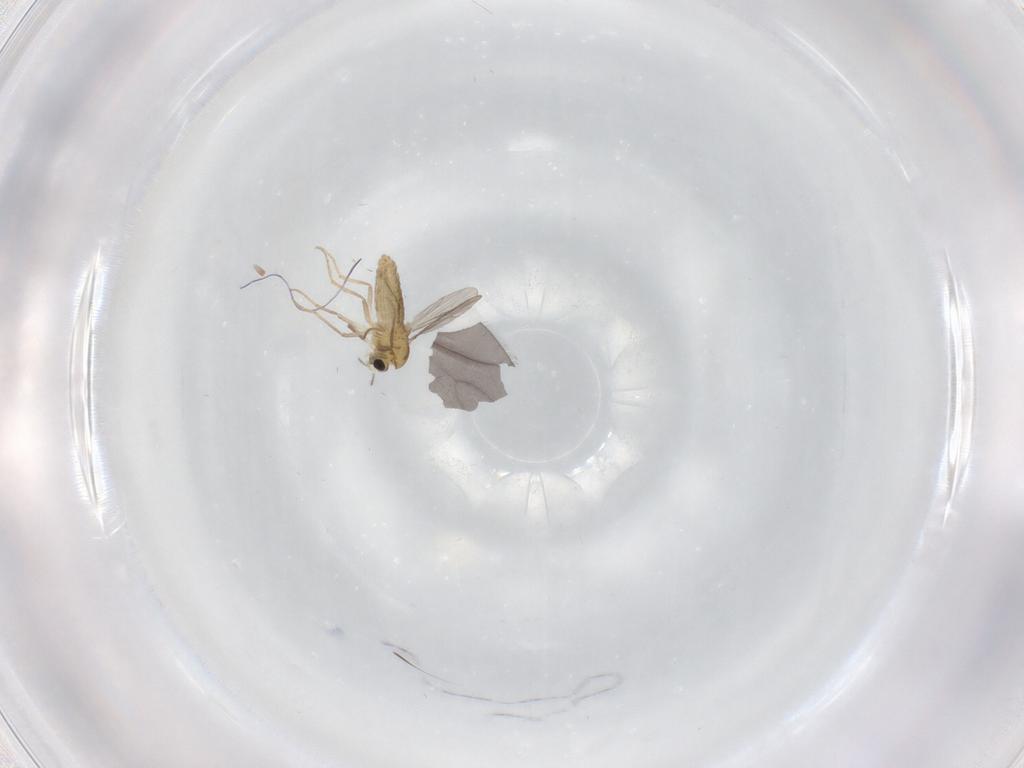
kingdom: Animalia
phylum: Arthropoda
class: Insecta
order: Diptera
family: Chironomidae
